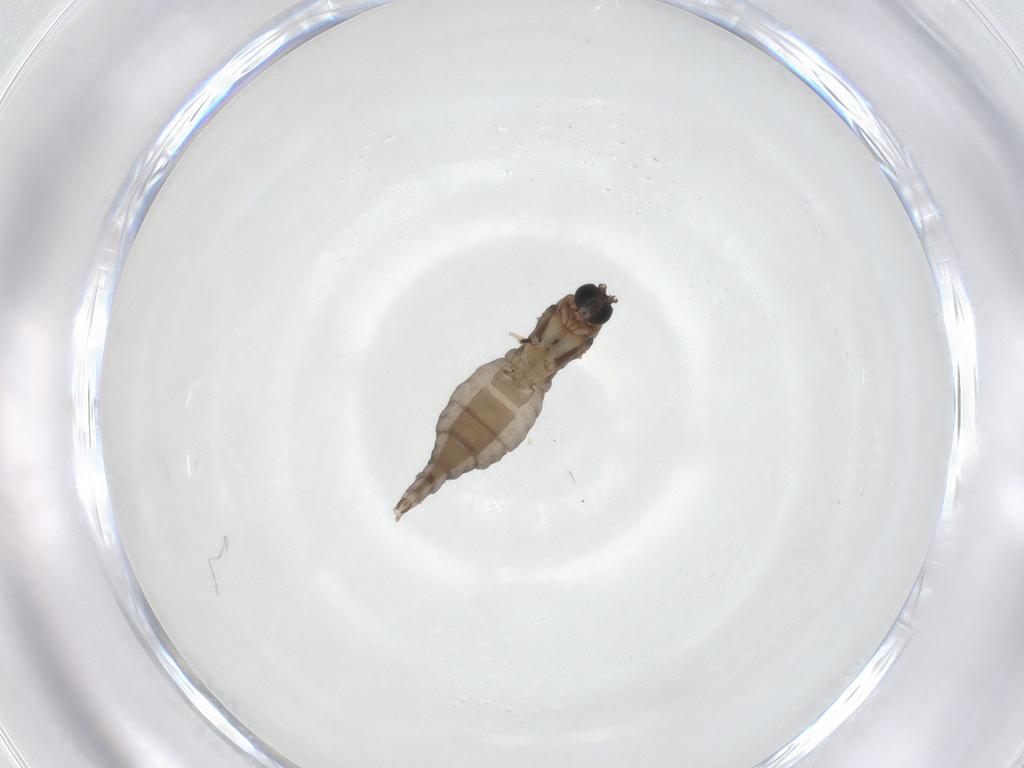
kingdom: Animalia
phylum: Arthropoda
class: Insecta
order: Diptera
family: Sciaridae
